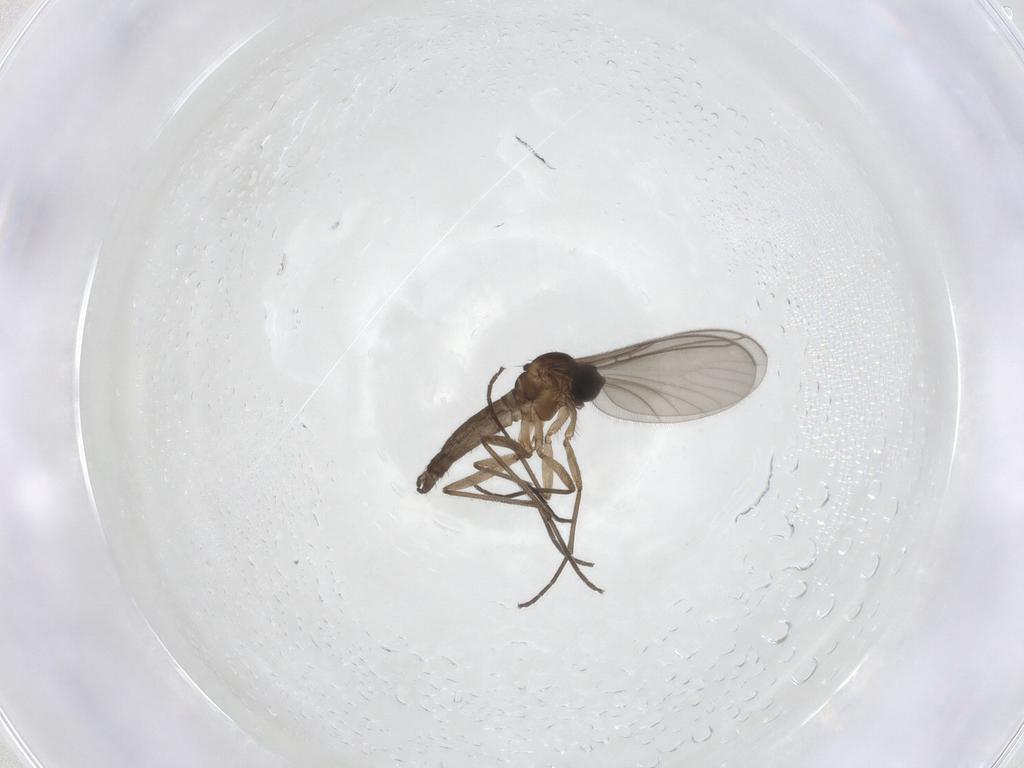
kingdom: Animalia
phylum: Arthropoda
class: Insecta
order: Diptera
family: Sciaridae
